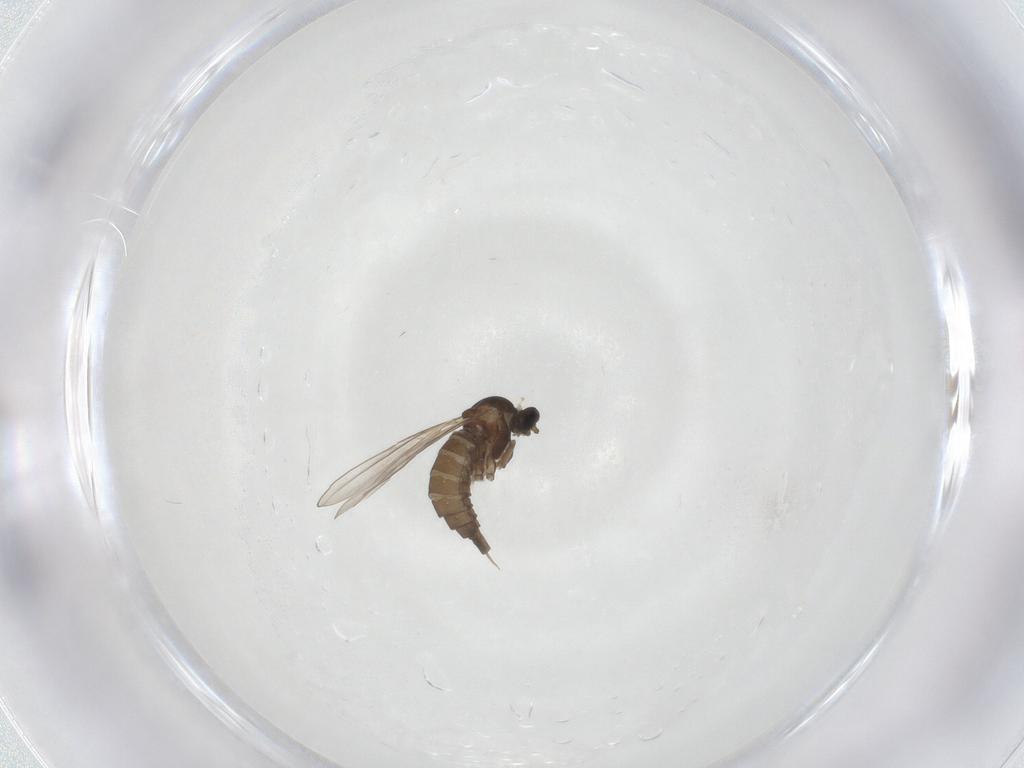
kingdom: Animalia
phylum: Arthropoda
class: Insecta
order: Diptera
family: Cecidomyiidae
